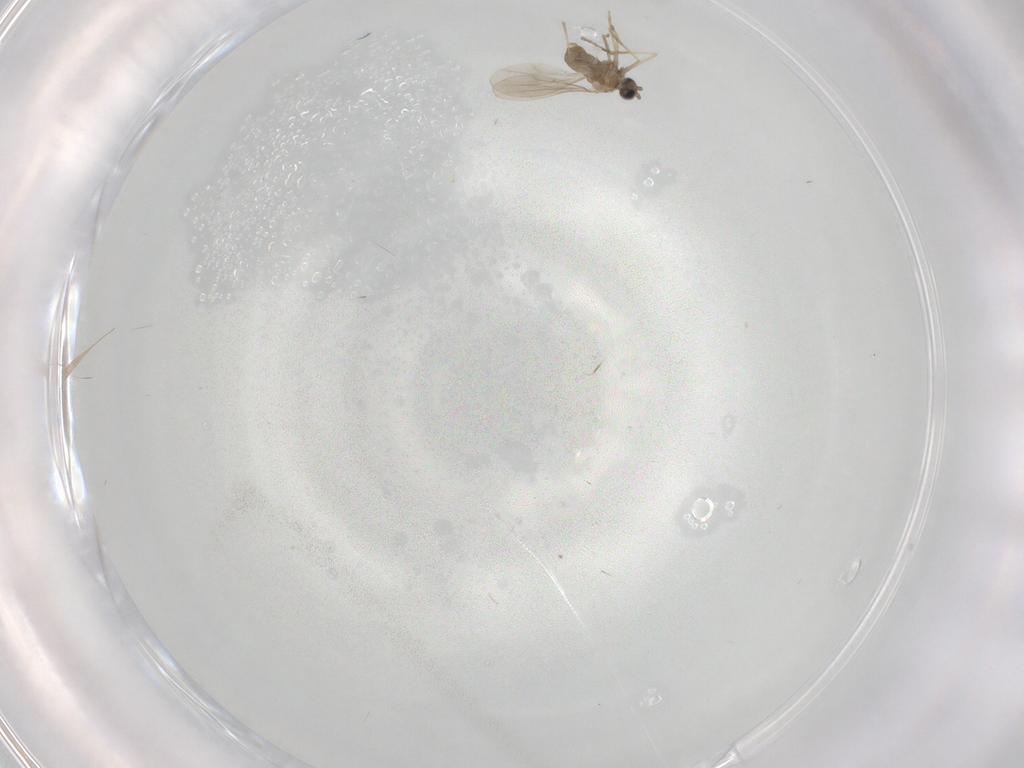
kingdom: Animalia
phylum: Arthropoda
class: Insecta
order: Diptera
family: Cecidomyiidae
